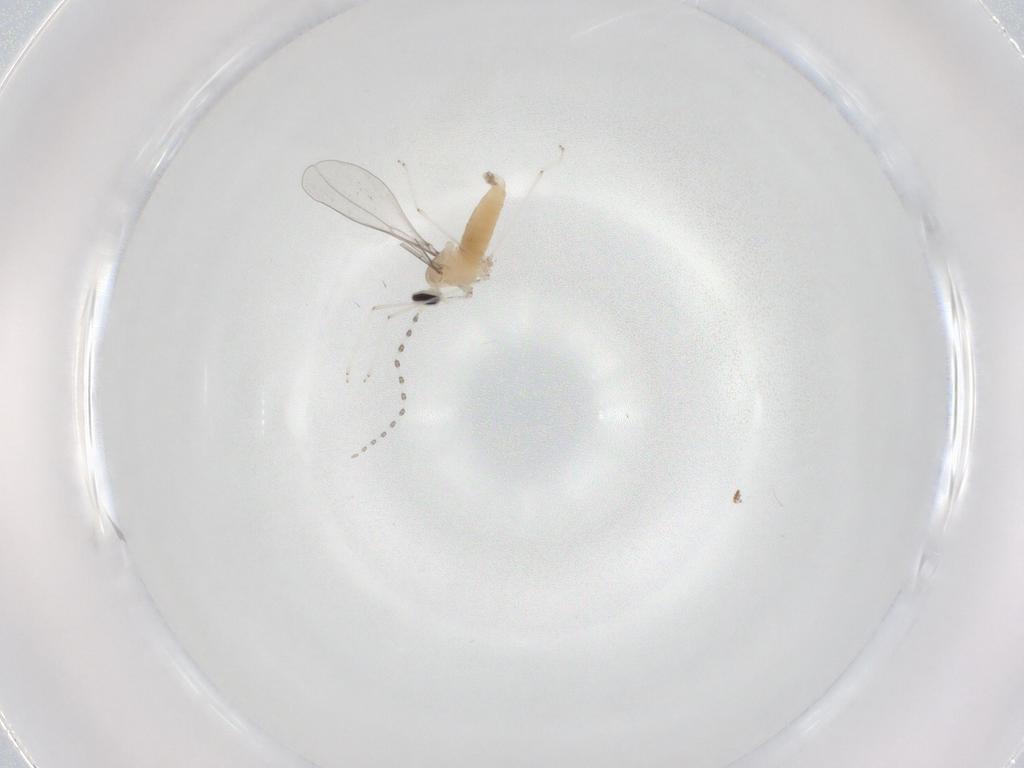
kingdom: Animalia
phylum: Arthropoda
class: Insecta
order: Diptera
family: Cecidomyiidae
